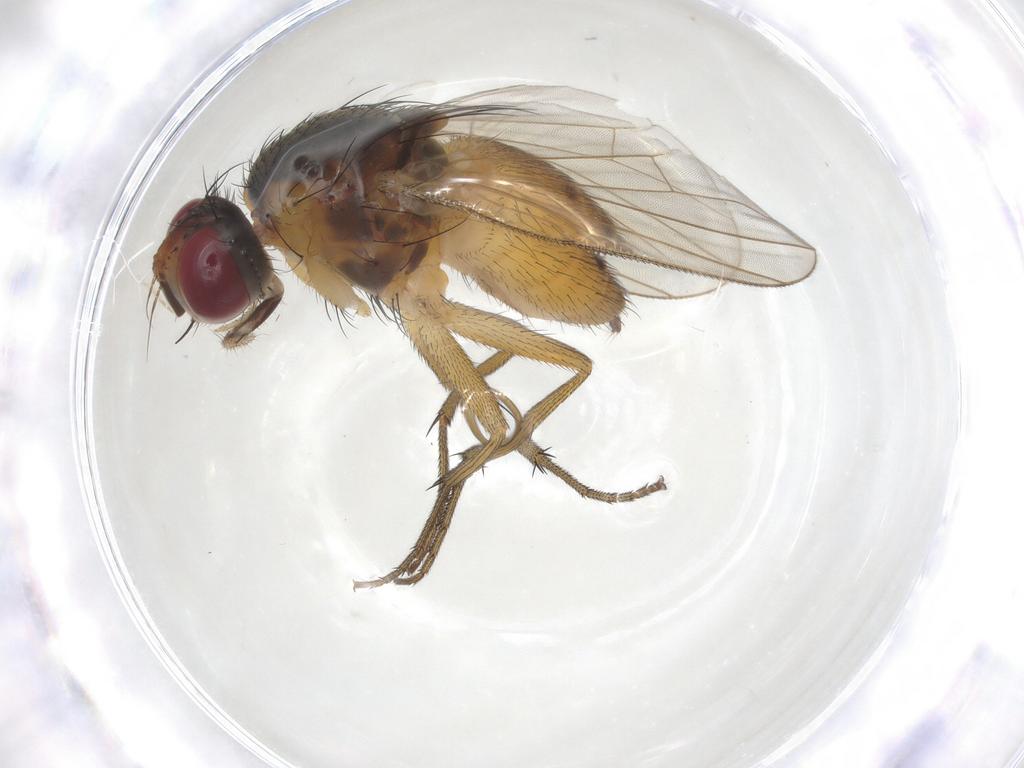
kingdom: Animalia
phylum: Arthropoda
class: Insecta
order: Diptera
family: Muscidae
